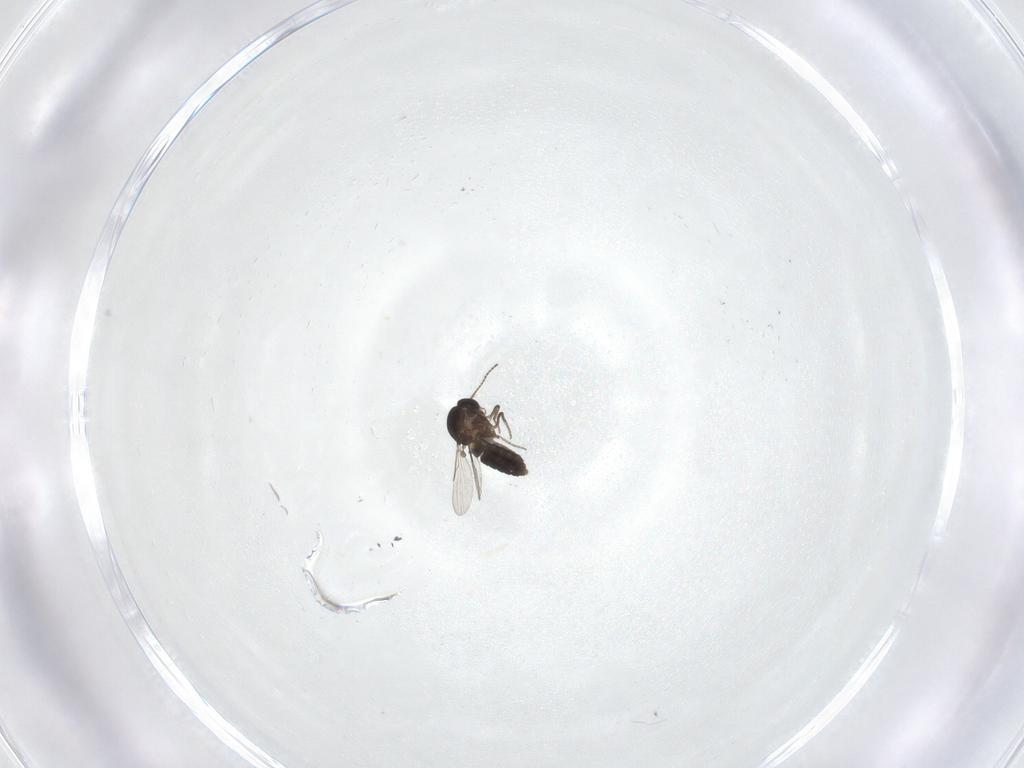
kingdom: Animalia
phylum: Arthropoda
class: Insecta
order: Diptera
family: Ceratopogonidae
